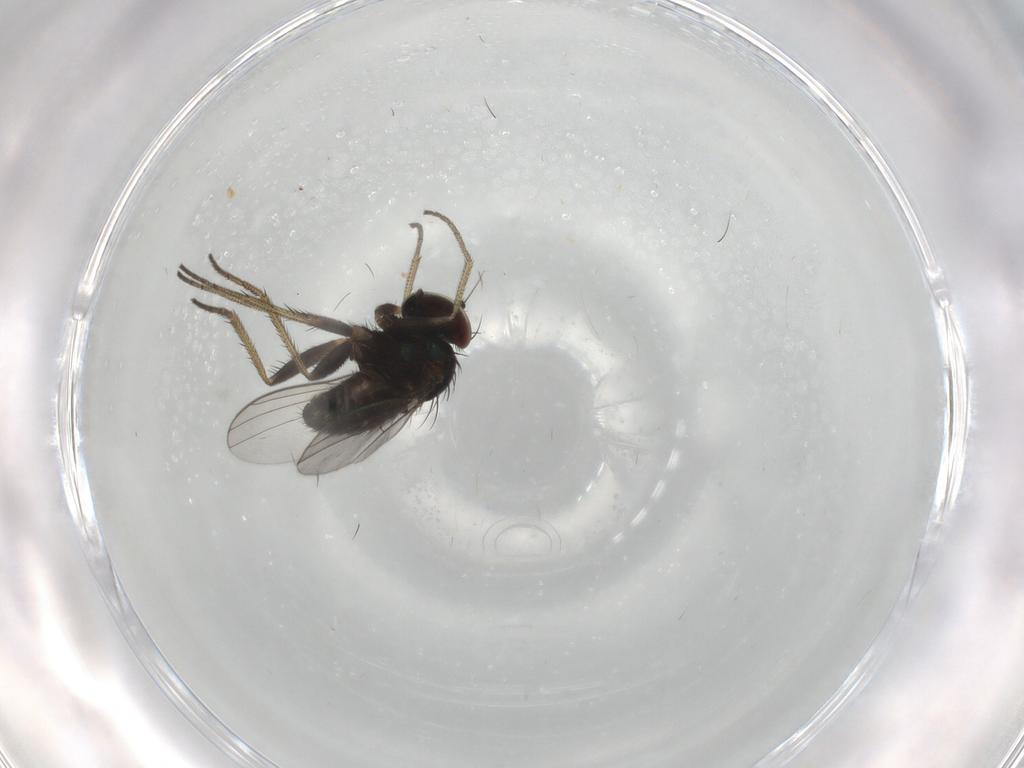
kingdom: Animalia
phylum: Arthropoda
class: Insecta
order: Diptera
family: Dolichopodidae
